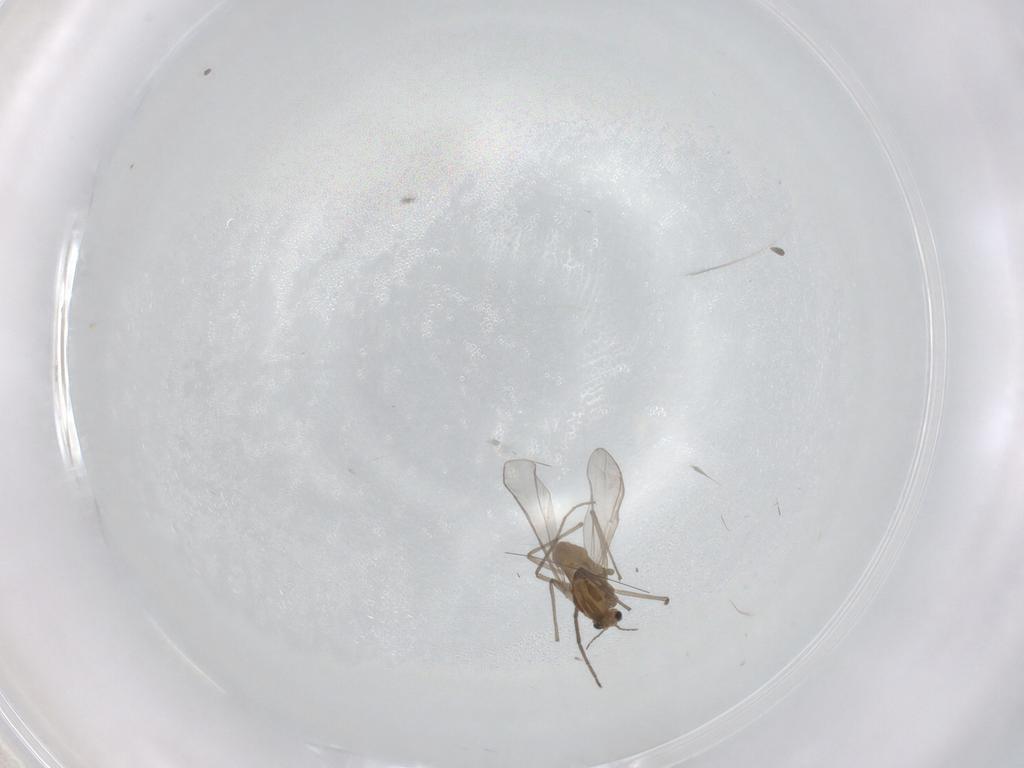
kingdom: Animalia
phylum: Arthropoda
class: Insecta
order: Diptera
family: Chironomidae
